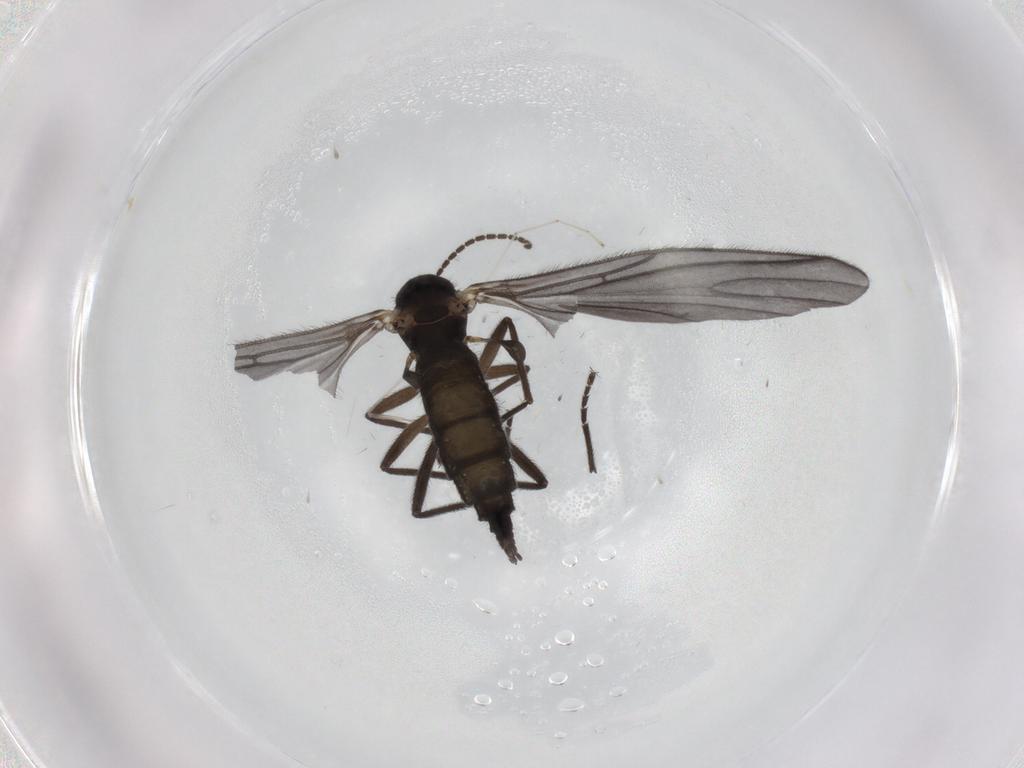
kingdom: Animalia
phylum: Arthropoda
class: Insecta
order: Diptera
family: Sciaridae
